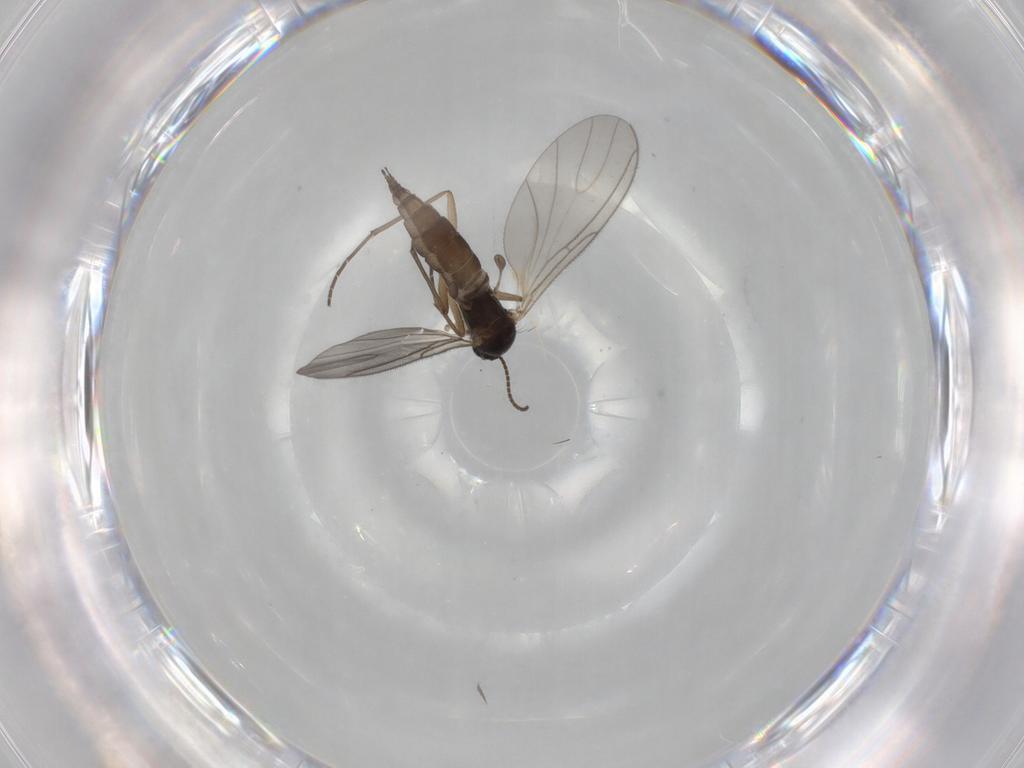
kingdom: Animalia
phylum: Arthropoda
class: Insecta
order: Diptera
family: Sciaridae
